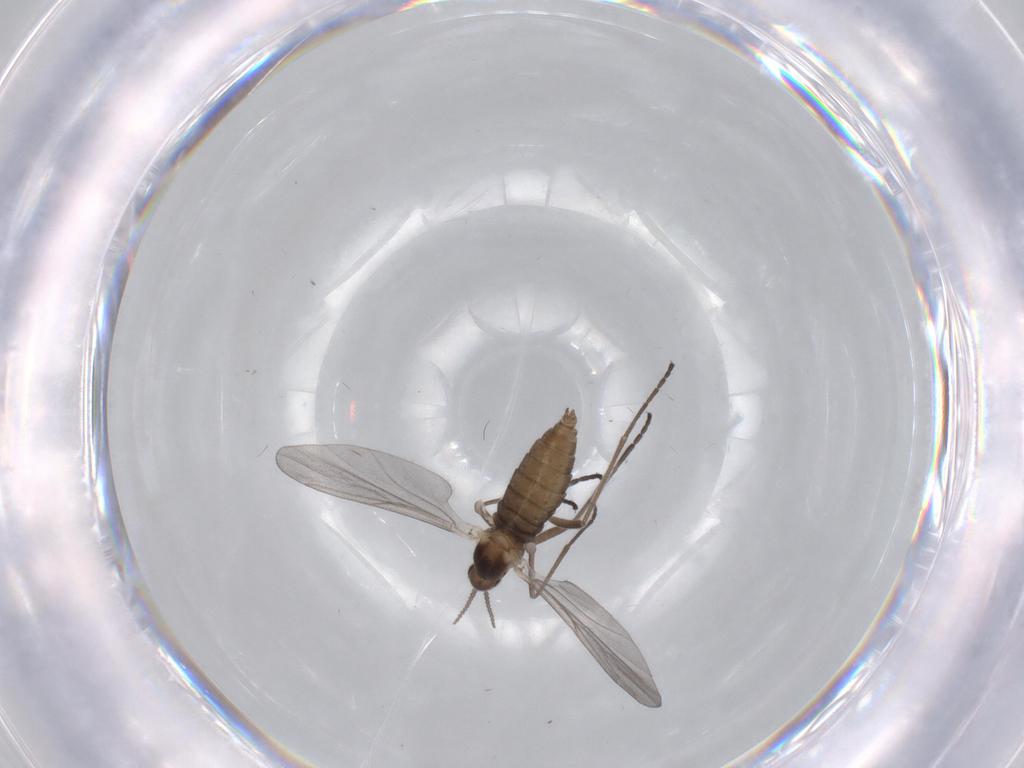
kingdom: Animalia
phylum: Arthropoda
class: Insecta
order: Diptera
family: Cecidomyiidae
